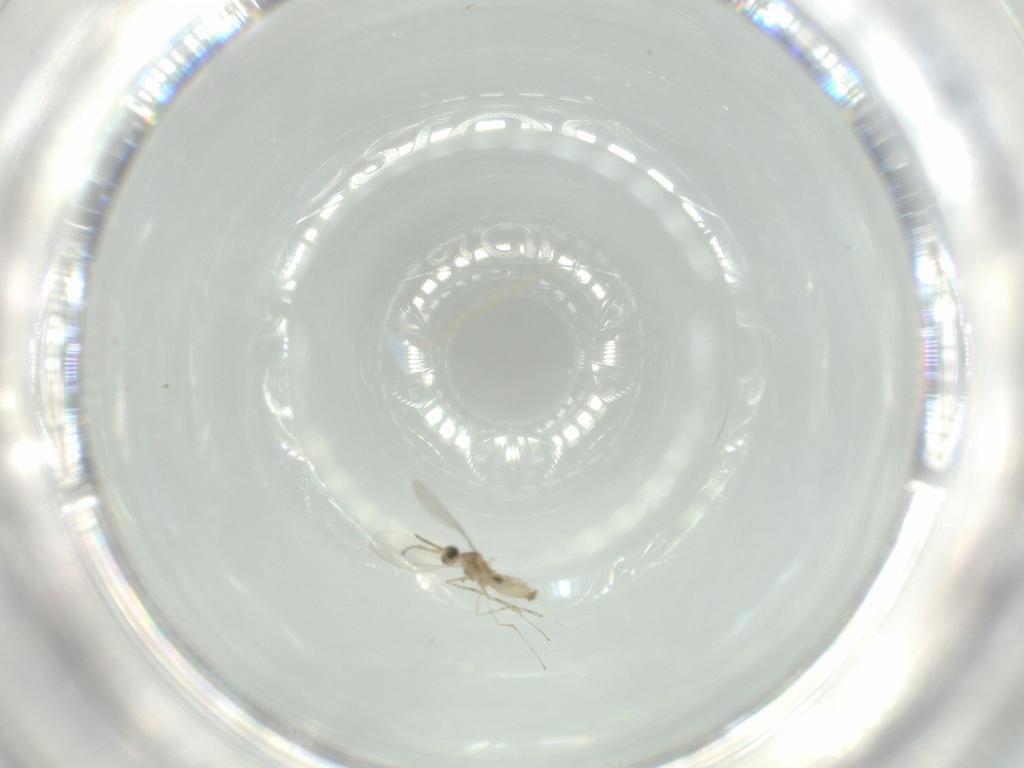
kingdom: Animalia
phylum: Arthropoda
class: Insecta
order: Diptera
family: Cecidomyiidae
